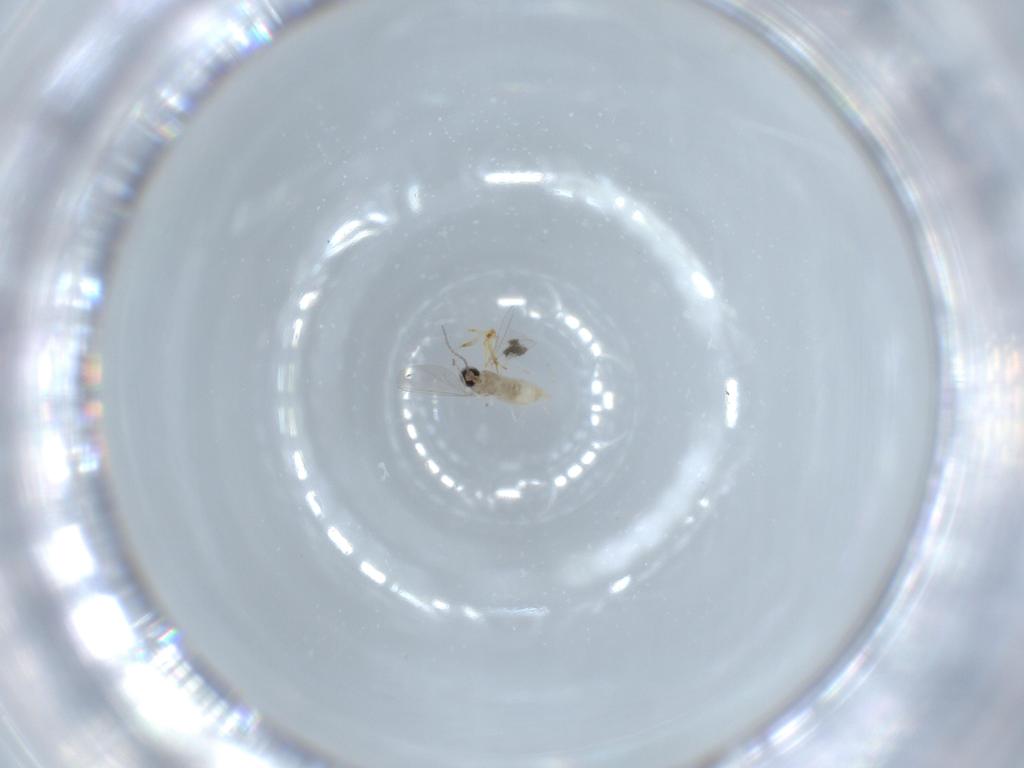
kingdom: Animalia
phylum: Arthropoda
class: Insecta
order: Diptera
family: Cecidomyiidae
